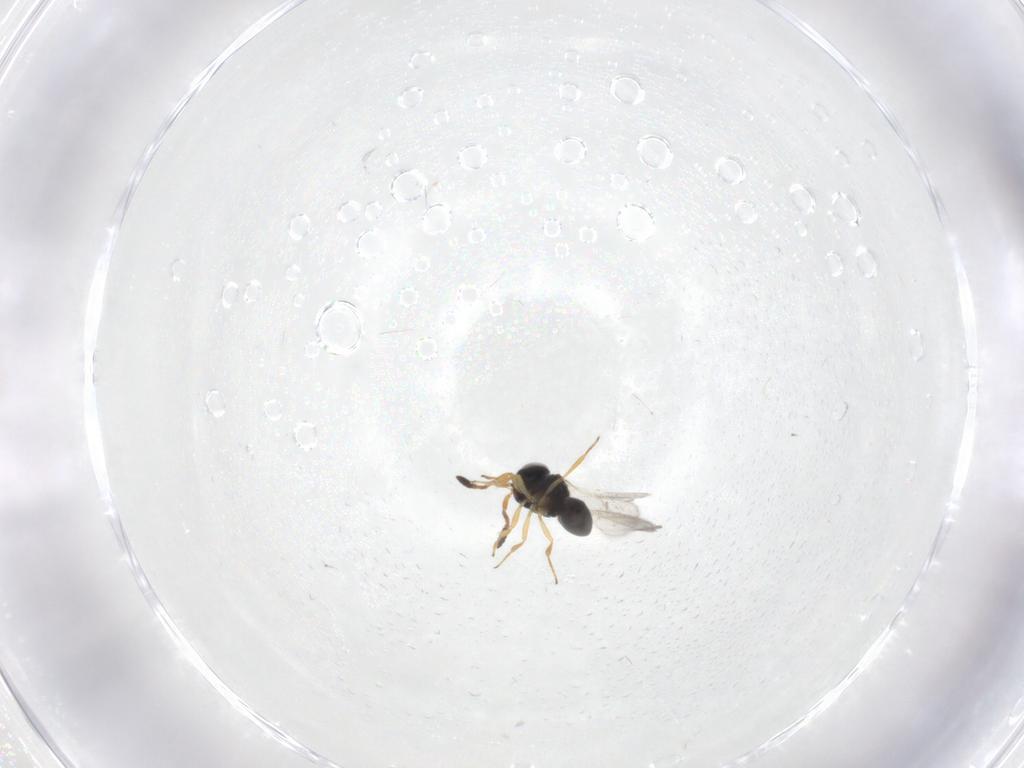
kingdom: Animalia
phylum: Arthropoda
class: Insecta
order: Hymenoptera
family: Scelionidae
